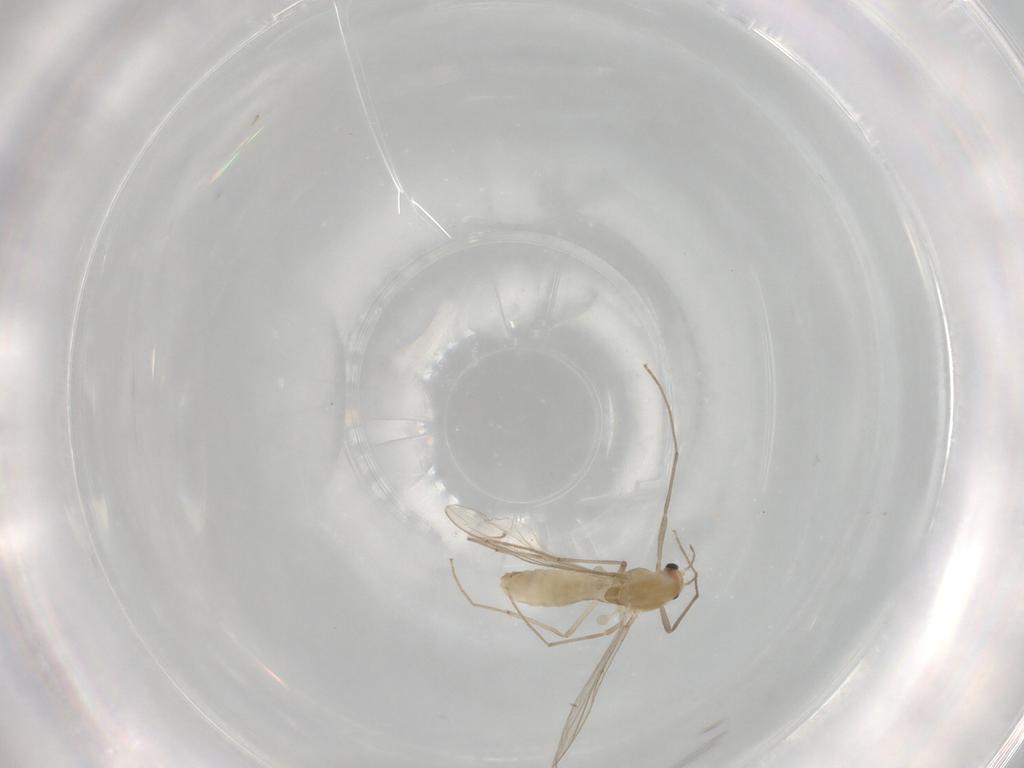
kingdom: Animalia
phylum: Arthropoda
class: Insecta
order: Diptera
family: Chironomidae
